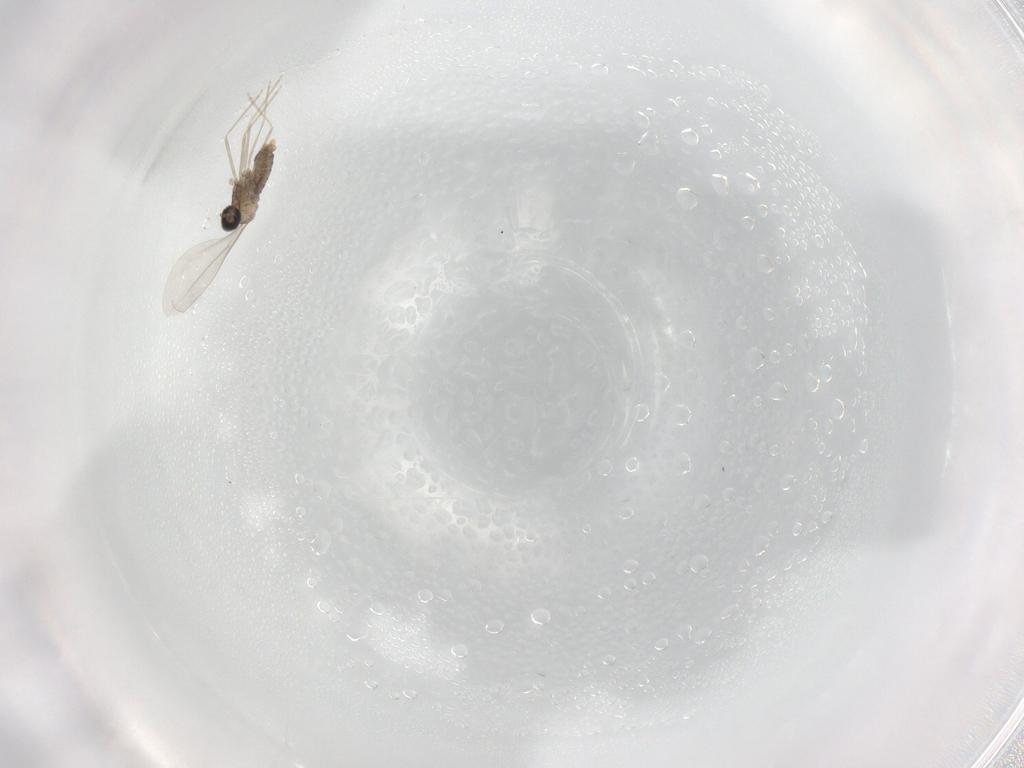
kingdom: Animalia
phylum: Arthropoda
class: Insecta
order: Diptera
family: Cecidomyiidae
